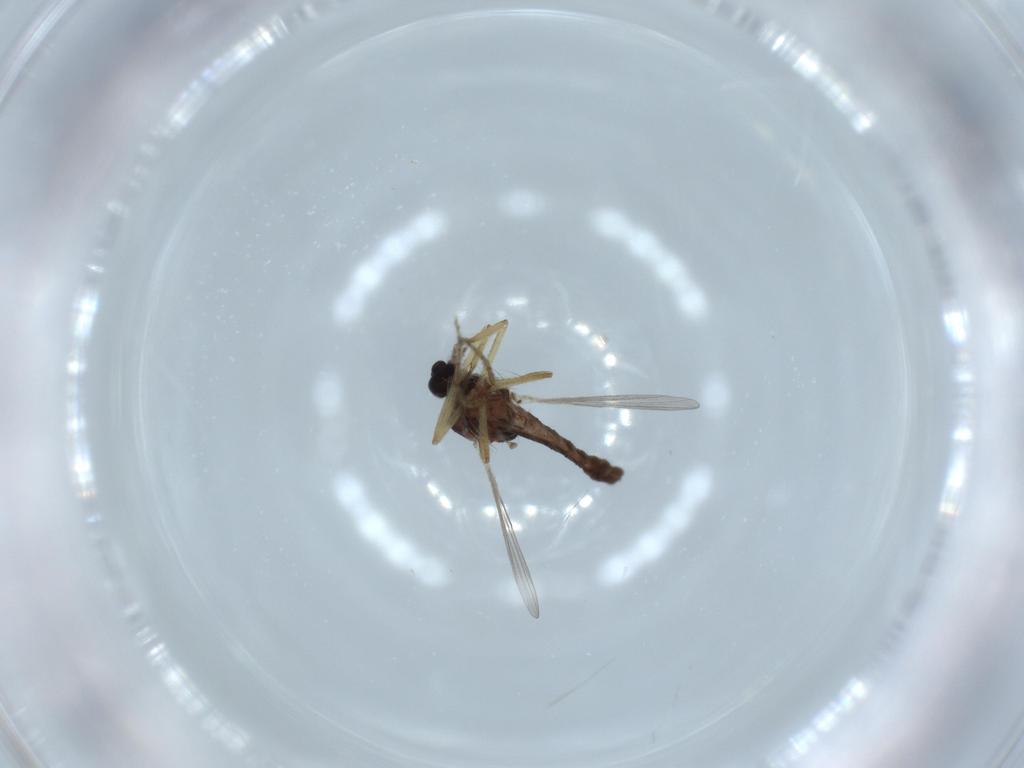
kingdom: Animalia
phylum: Arthropoda
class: Insecta
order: Diptera
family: Ceratopogonidae
